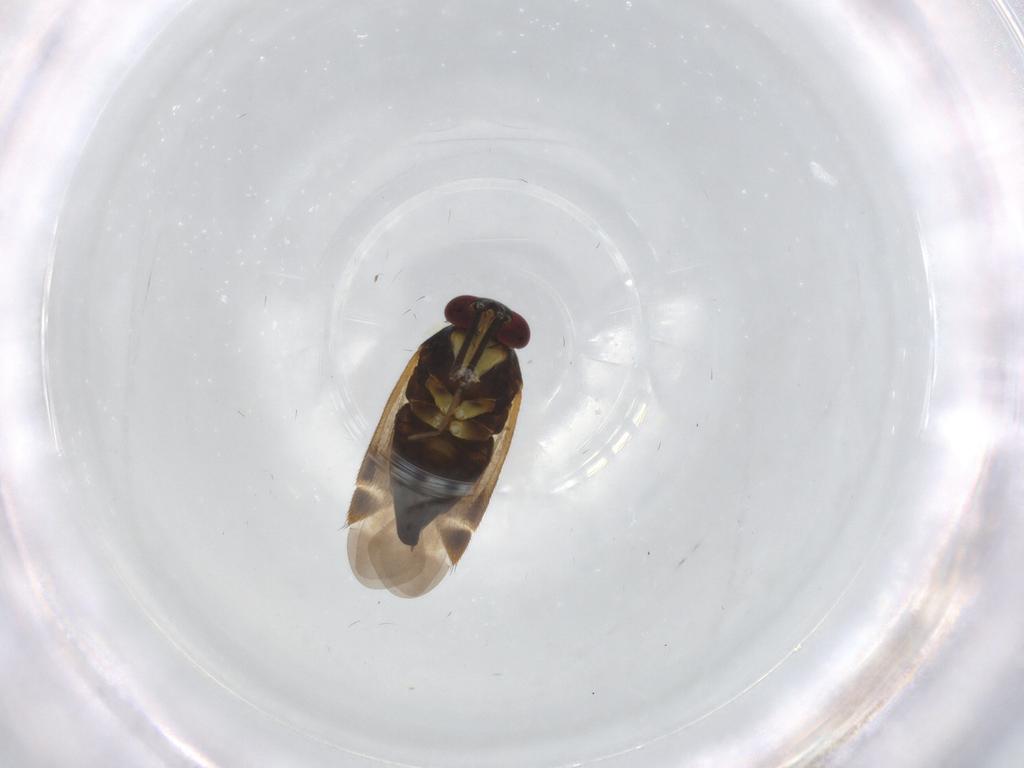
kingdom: Animalia
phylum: Arthropoda
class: Insecta
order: Hemiptera
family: Miridae
